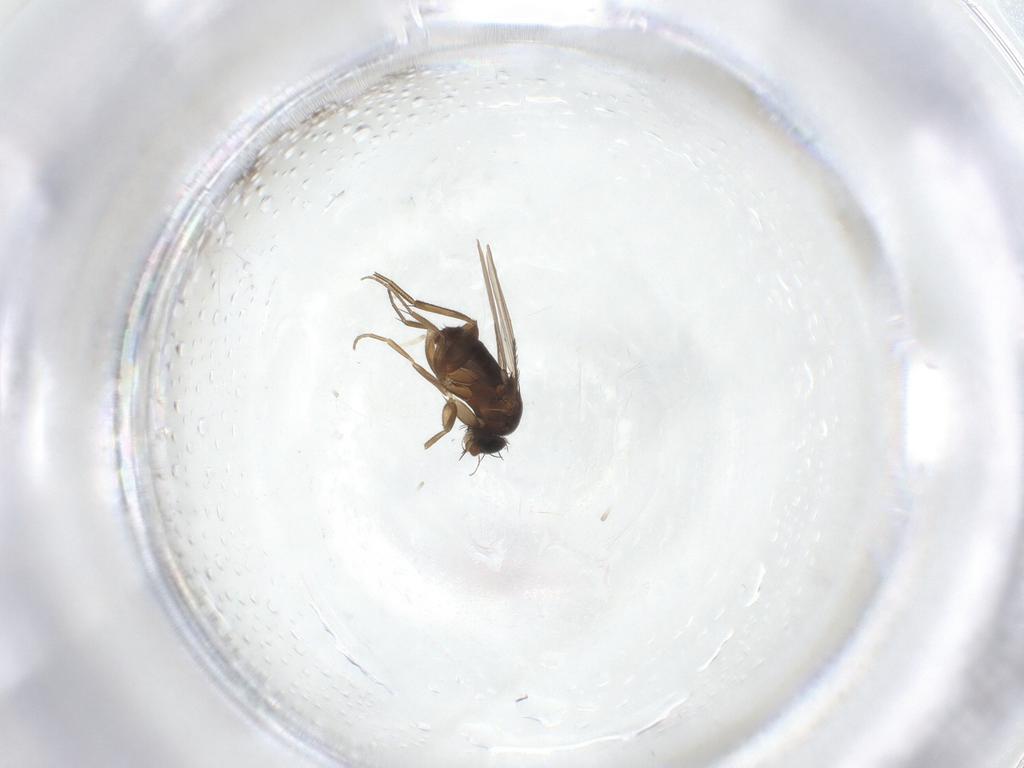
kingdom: Animalia
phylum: Arthropoda
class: Insecta
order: Diptera
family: Phoridae
